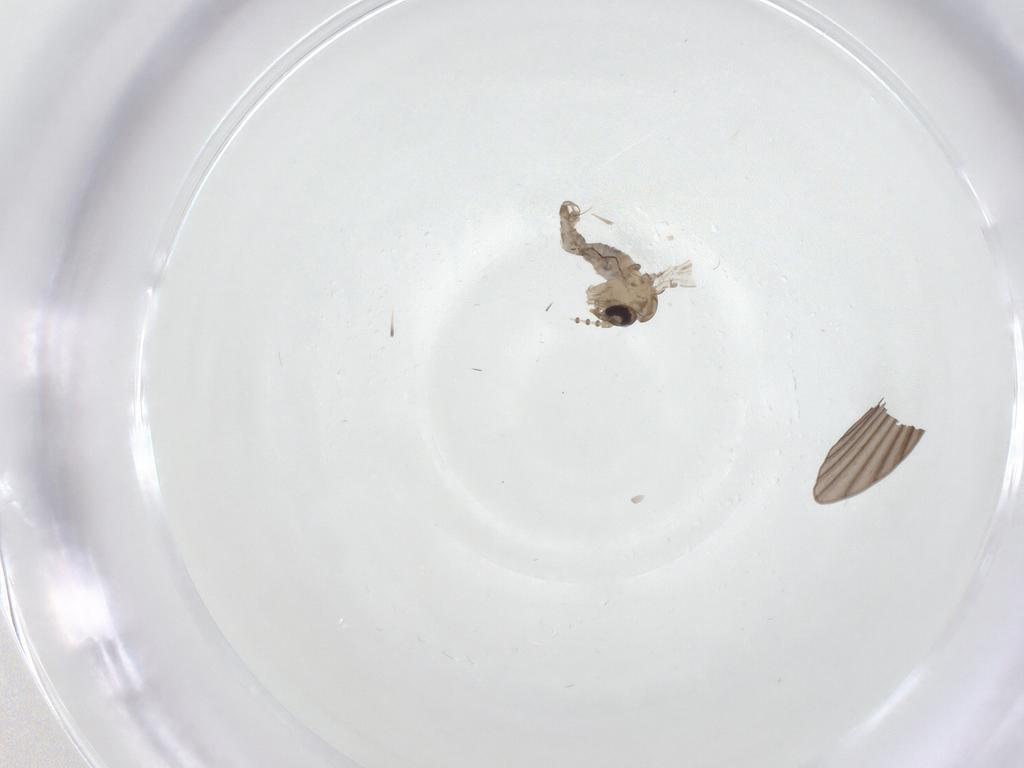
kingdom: Animalia
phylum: Arthropoda
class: Insecta
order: Diptera
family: Psychodidae
